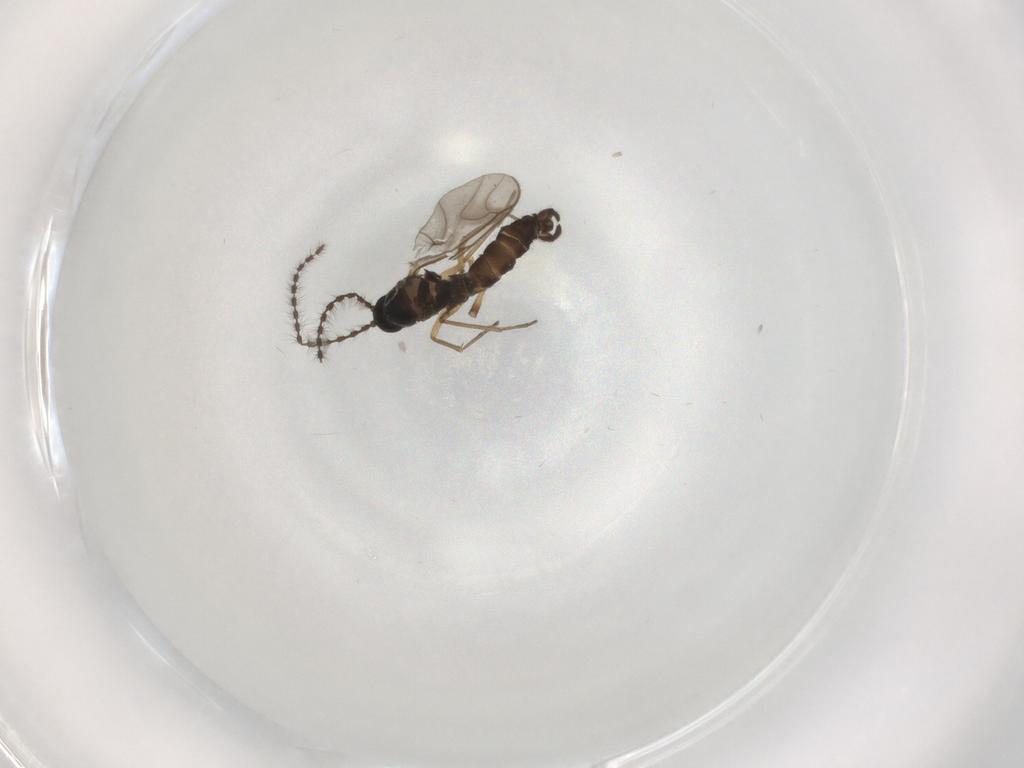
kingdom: Animalia
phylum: Arthropoda
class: Insecta
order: Diptera
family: Sciaridae
